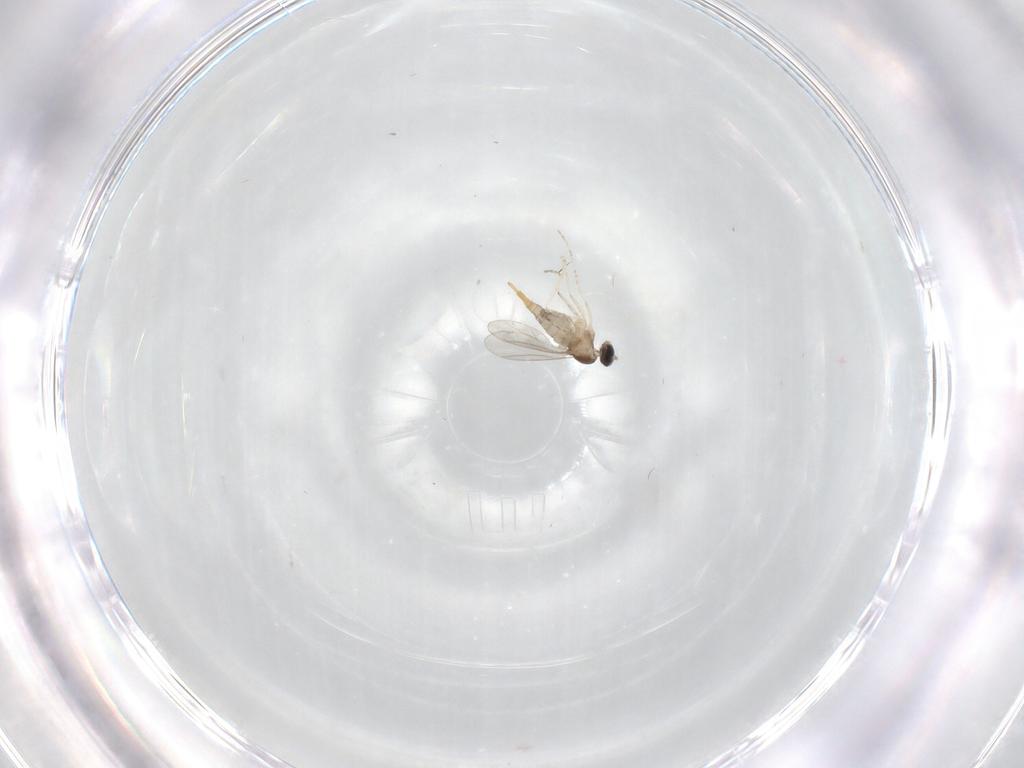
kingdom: Animalia
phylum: Arthropoda
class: Insecta
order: Diptera
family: Cecidomyiidae
